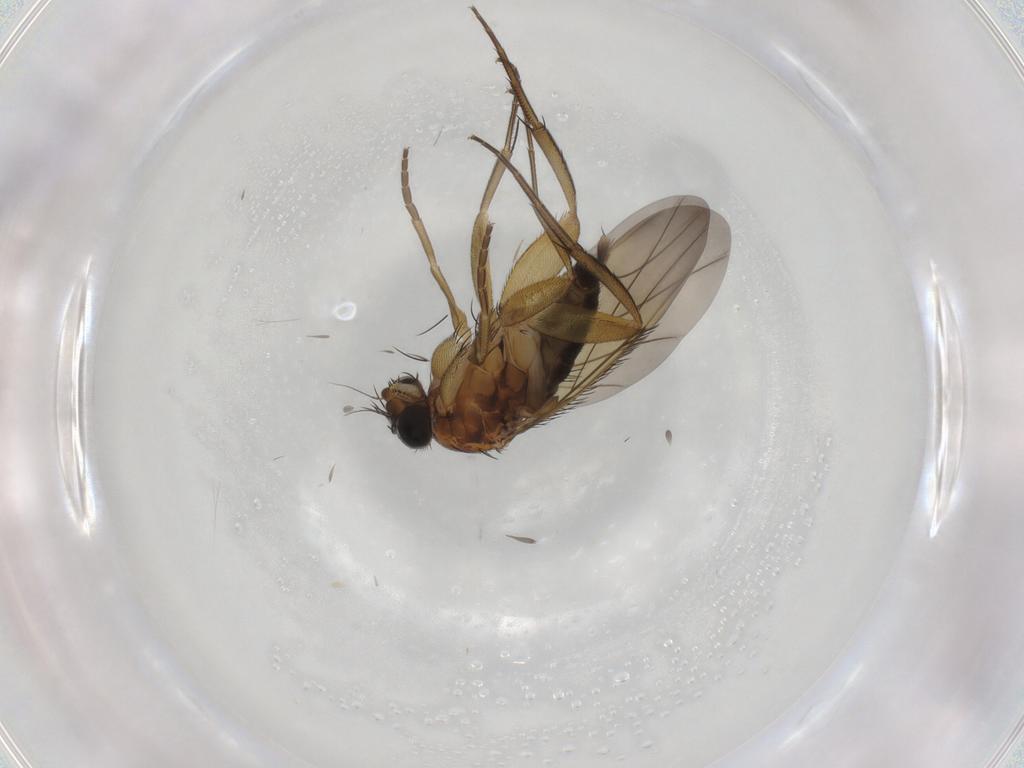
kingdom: Animalia
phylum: Arthropoda
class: Insecta
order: Diptera
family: Phoridae
